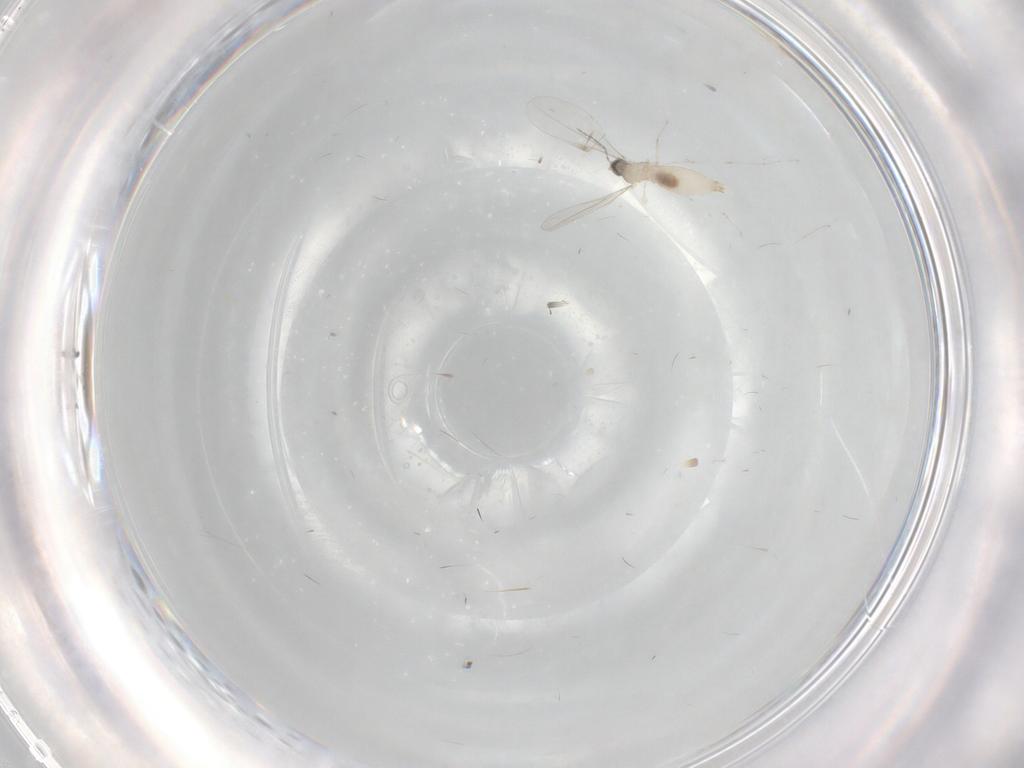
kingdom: Animalia
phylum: Arthropoda
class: Insecta
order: Diptera
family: Cecidomyiidae
